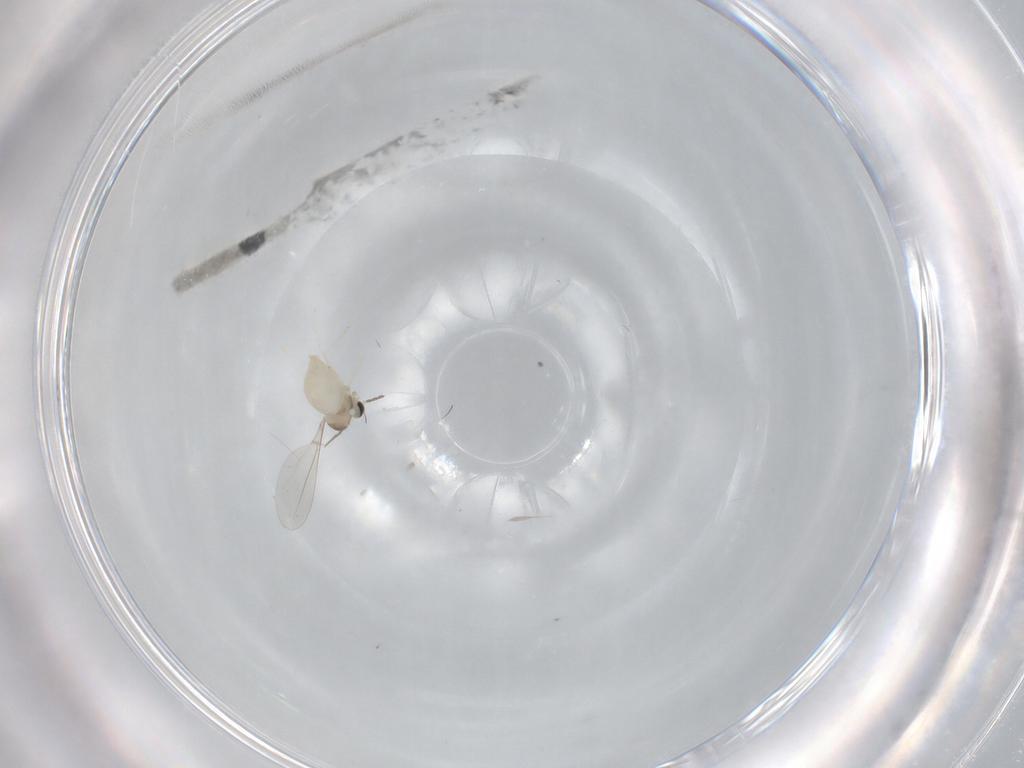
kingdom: Animalia
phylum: Arthropoda
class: Insecta
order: Diptera
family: Cecidomyiidae
